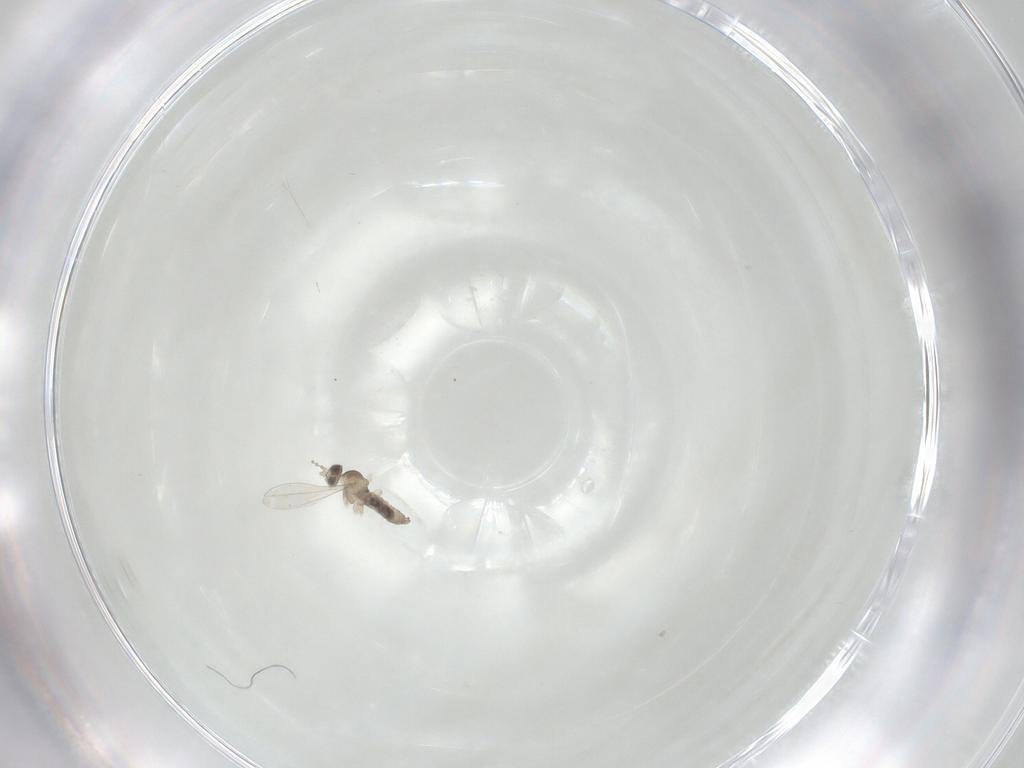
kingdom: Animalia
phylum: Arthropoda
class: Insecta
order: Diptera
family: Cecidomyiidae
